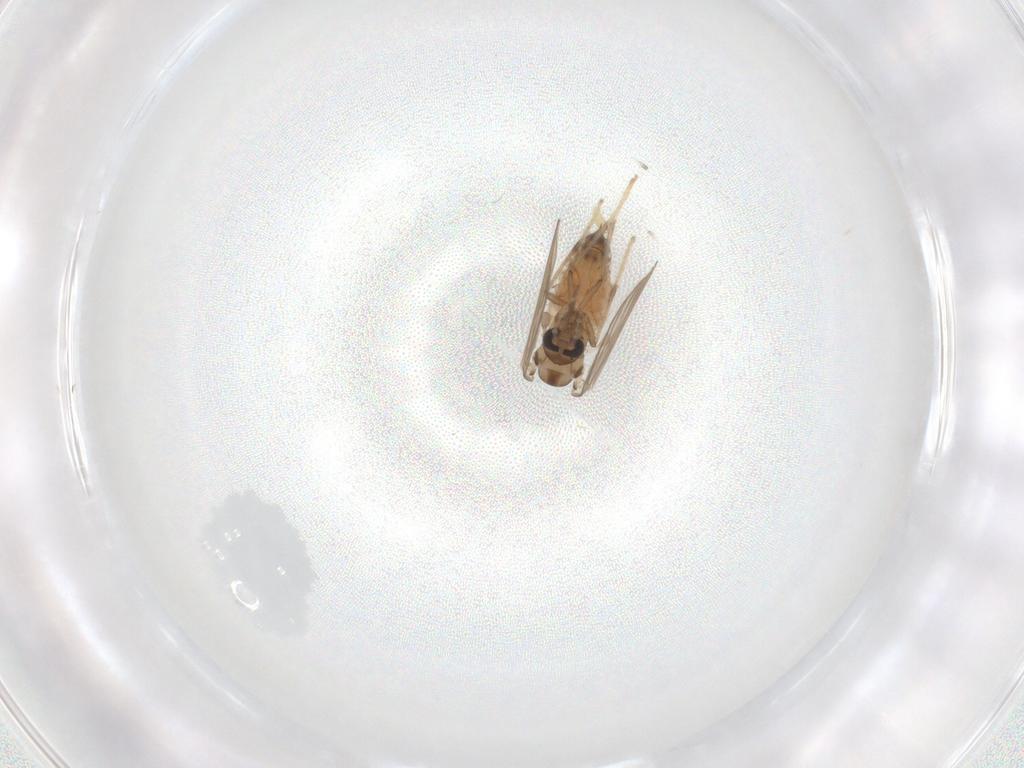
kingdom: Animalia
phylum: Arthropoda
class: Insecta
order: Diptera
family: Psychodidae
